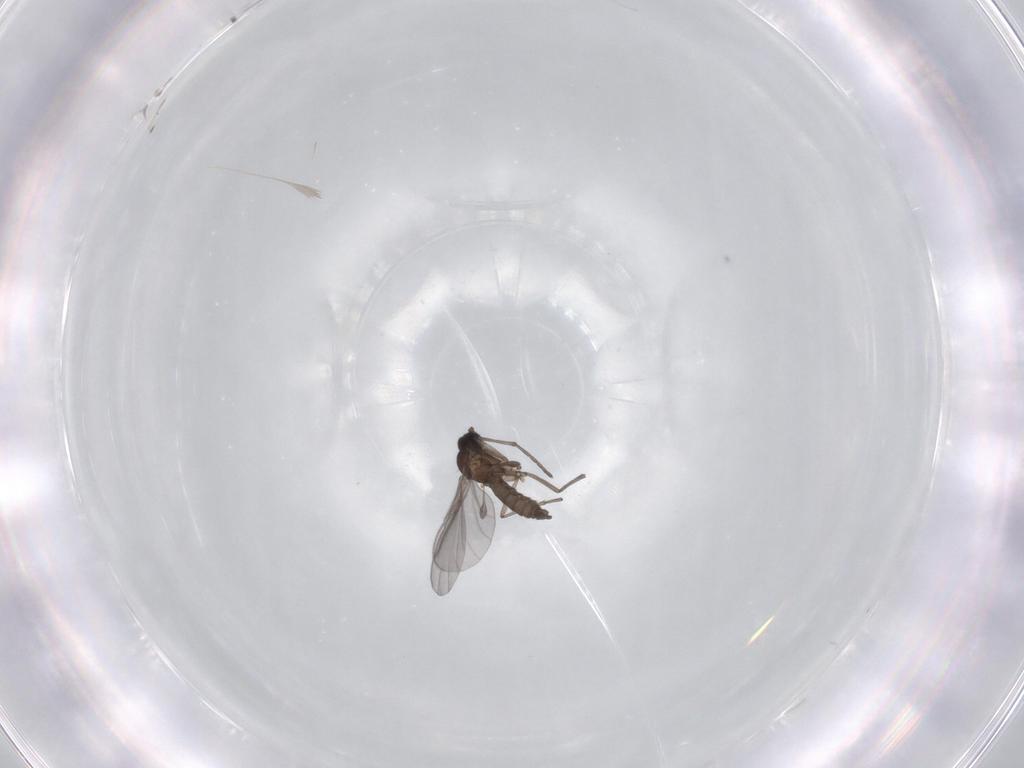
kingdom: Animalia
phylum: Arthropoda
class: Insecta
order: Diptera
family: Sciaridae
